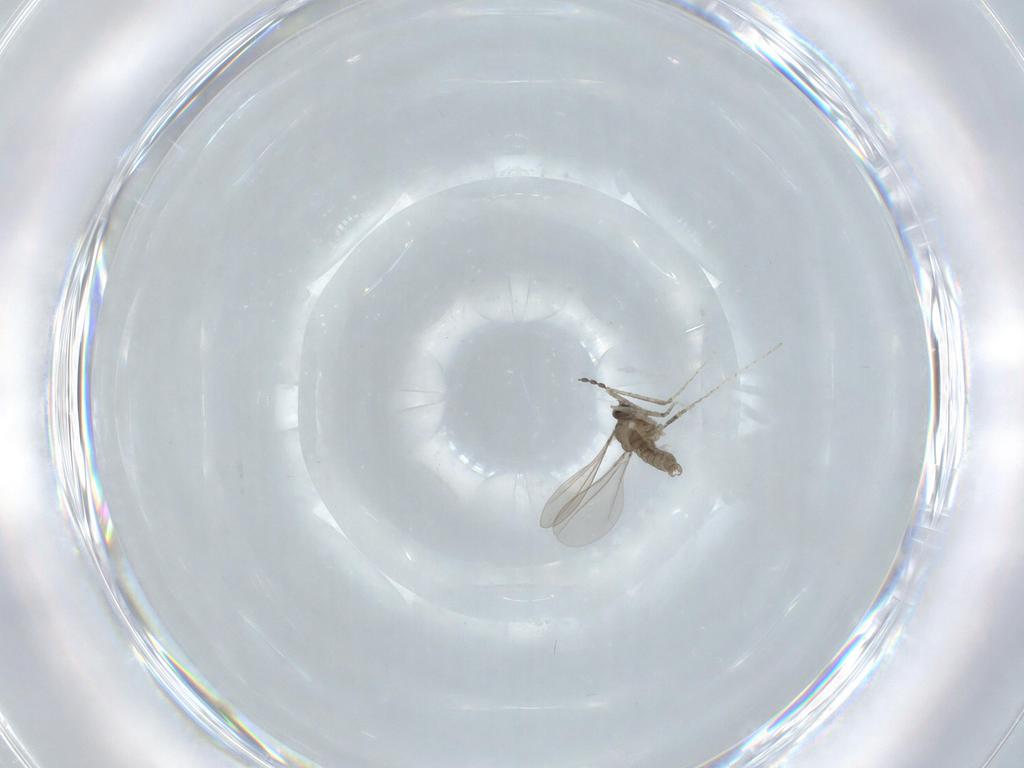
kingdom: Animalia
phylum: Arthropoda
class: Insecta
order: Diptera
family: Cecidomyiidae
